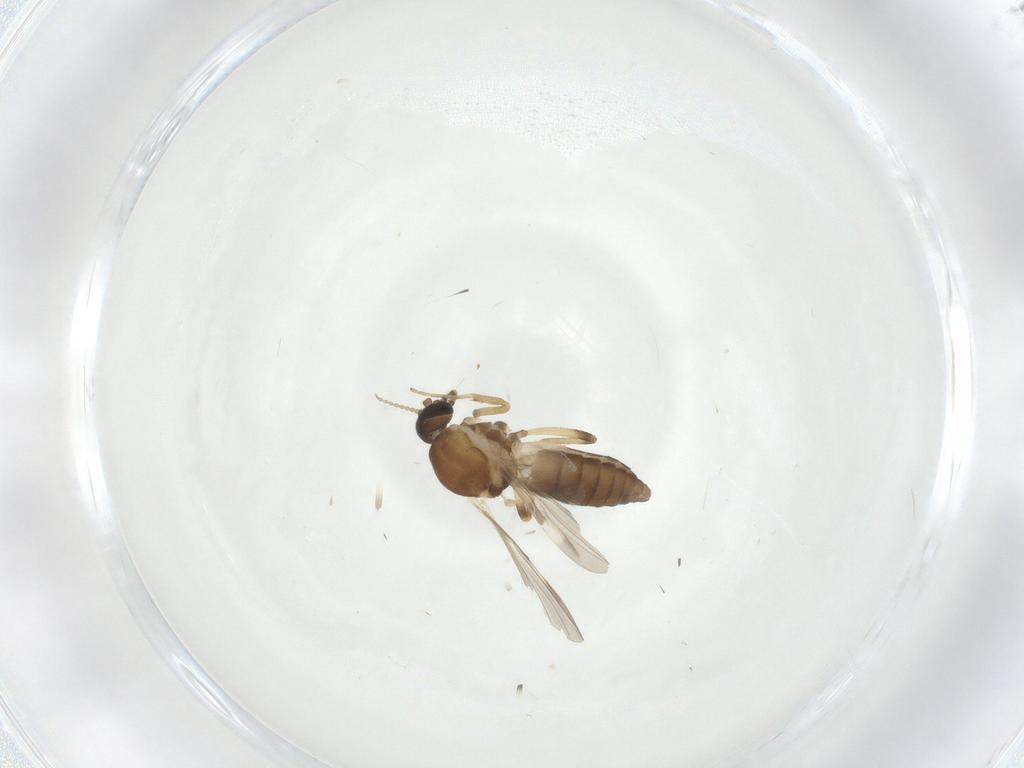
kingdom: Animalia
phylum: Arthropoda
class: Insecta
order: Diptera
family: Ceratopogonidae
